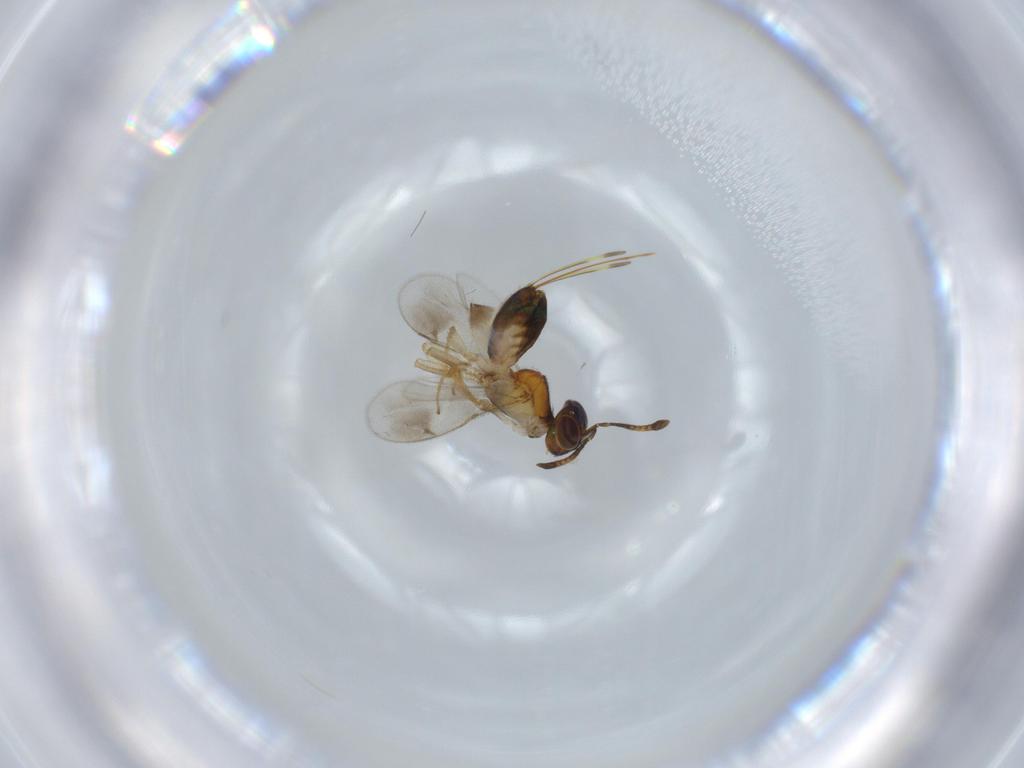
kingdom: Animalia
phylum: Arthropoda
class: Insecta
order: Hymenoptera
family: Pteromalidae
